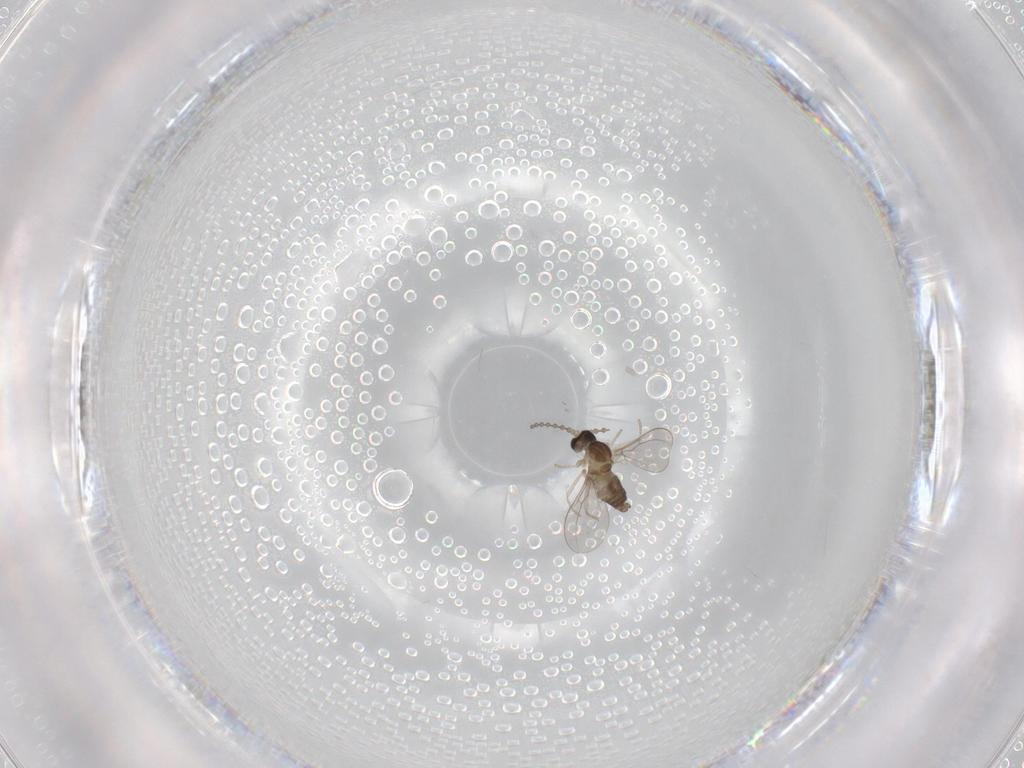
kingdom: Animalia
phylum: Arthropoda
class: Insecta
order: Diptera
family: Cecidomyiidae
